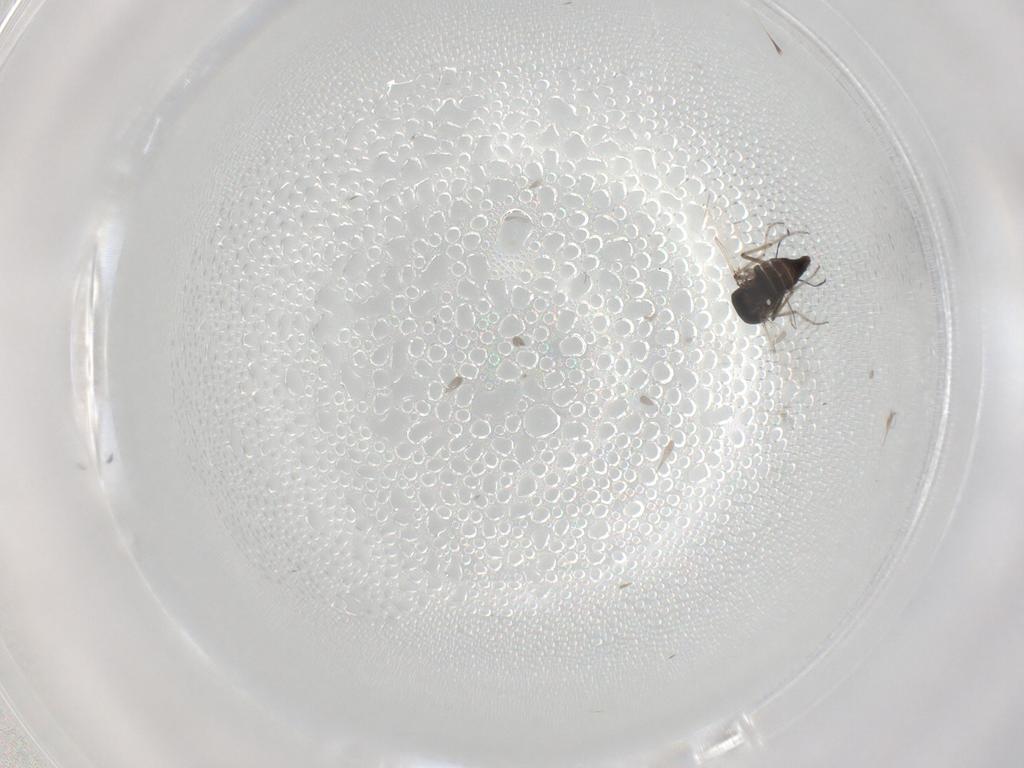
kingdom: Animalia
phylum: Arthropoda
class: Insecta
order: Diptera
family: Ceratopogonidae
